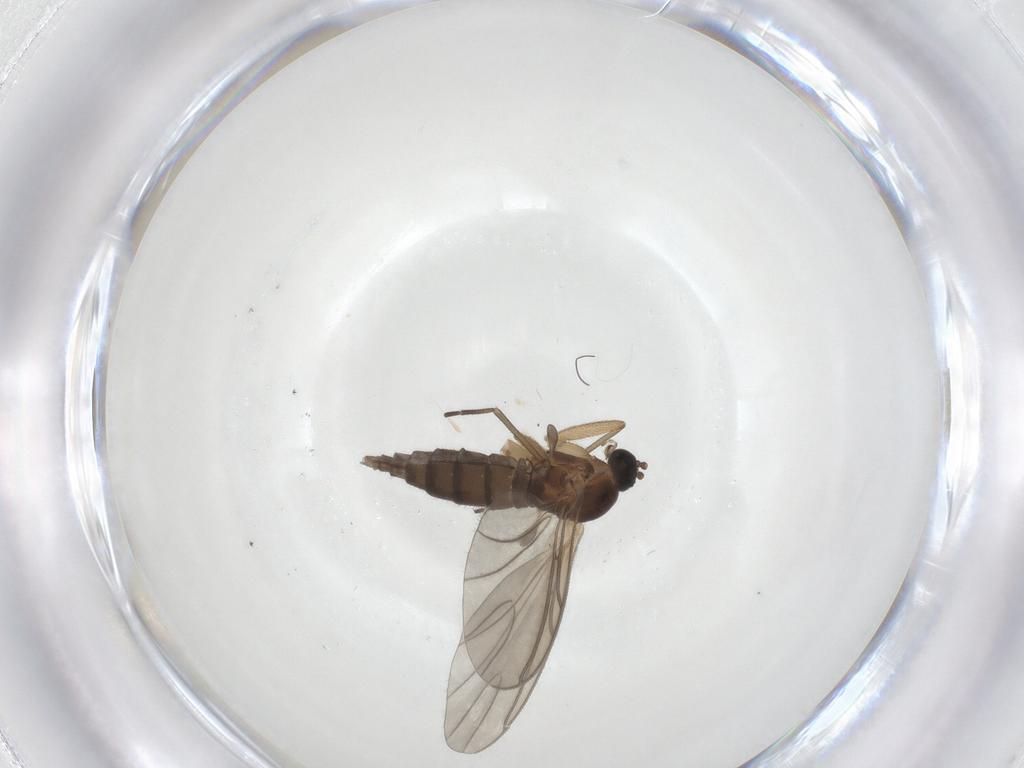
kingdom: Animalia
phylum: Arthropoda
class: Insecta
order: Diptera
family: Sciaridae
